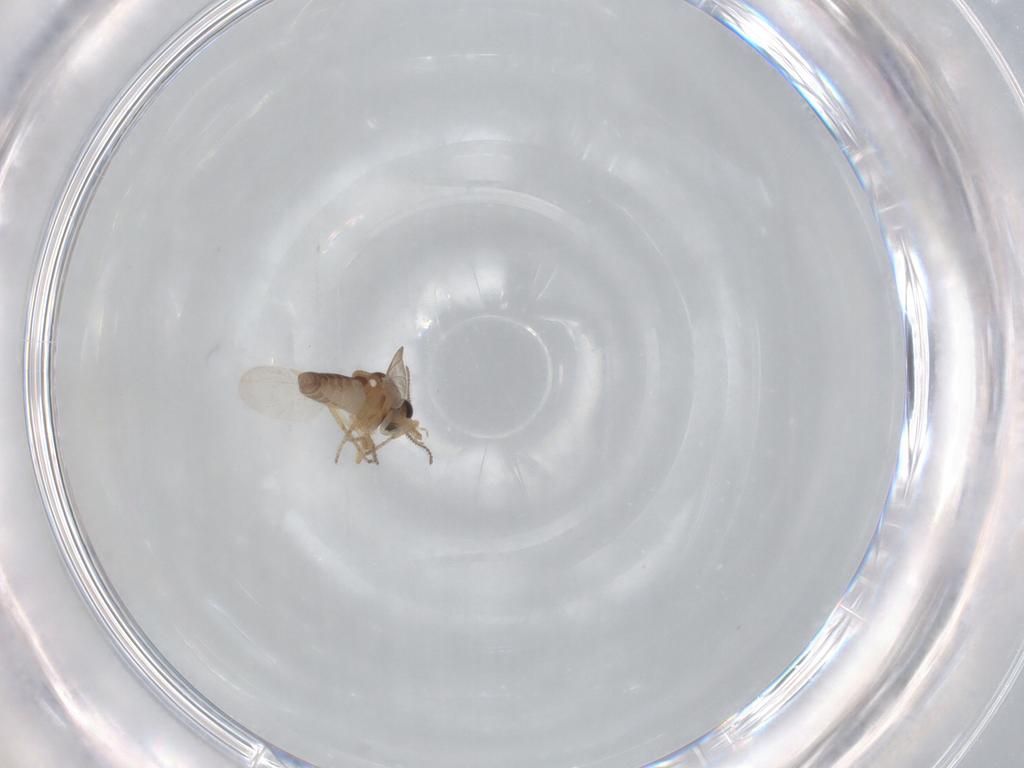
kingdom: Animalia
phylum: Arthropoda
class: Insecta
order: Diptera
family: Ceratopogonidae
